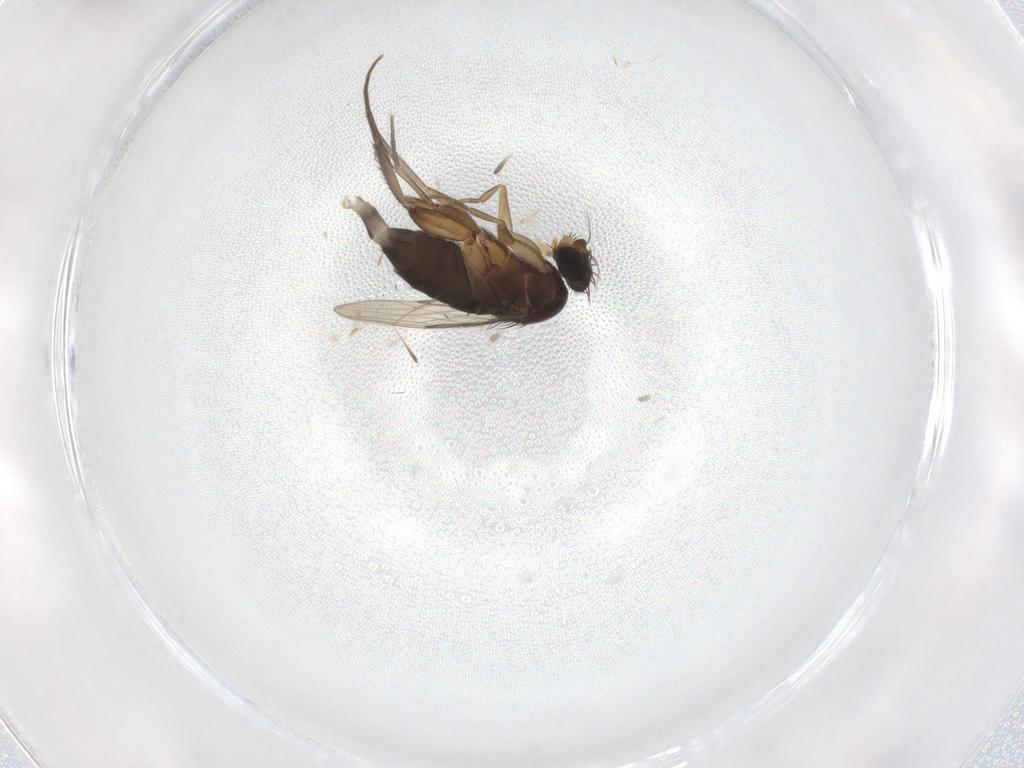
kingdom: Animalia
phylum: Arthropoda
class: Insecta
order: Diptera
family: Phoridae
